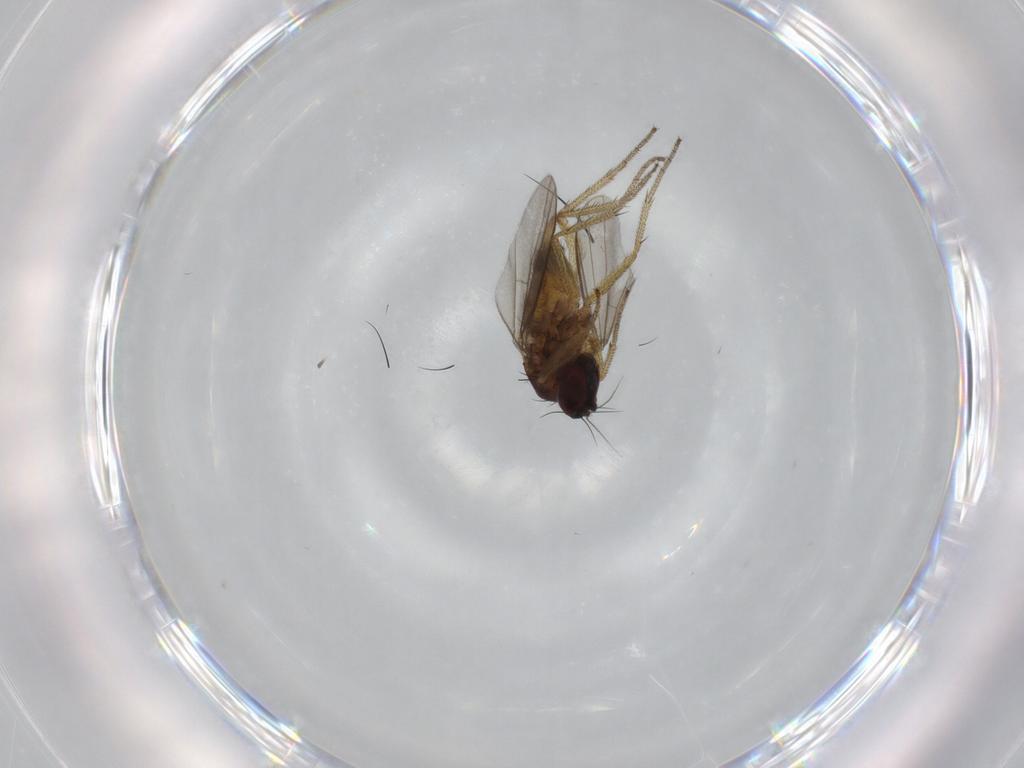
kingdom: Animalia
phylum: Arthropoda
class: Insecta
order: Diptera
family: Dolichopodidae
